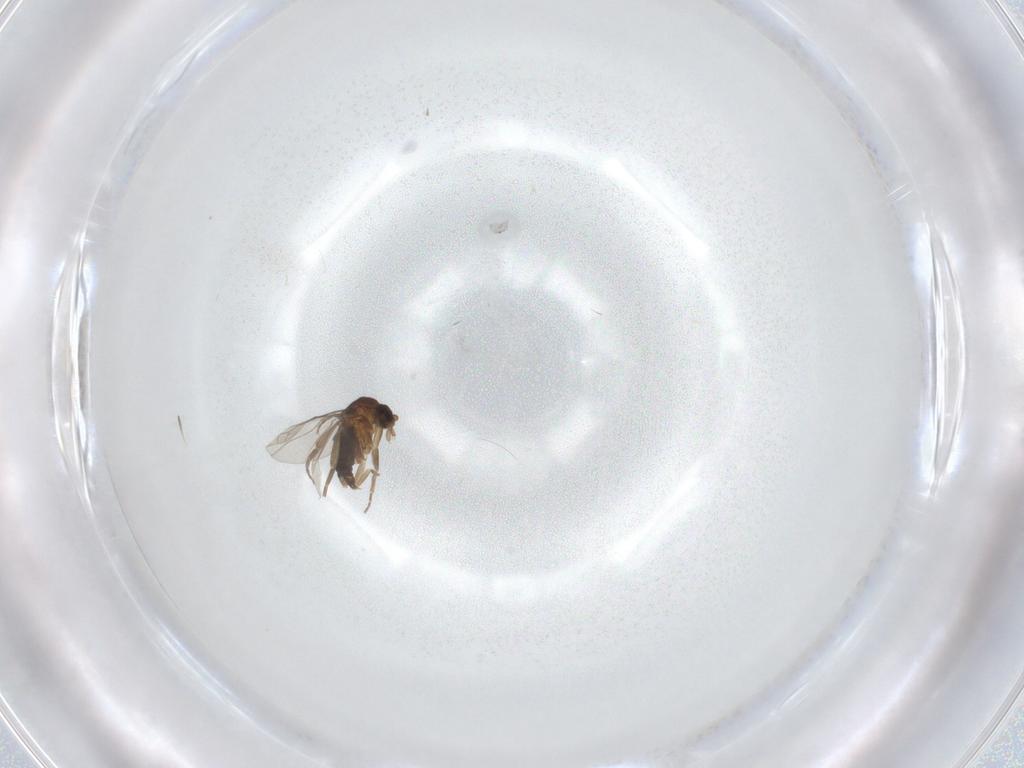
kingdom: Animalia
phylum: Arthropoda
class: Insecta
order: Diptera
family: Phoridae
